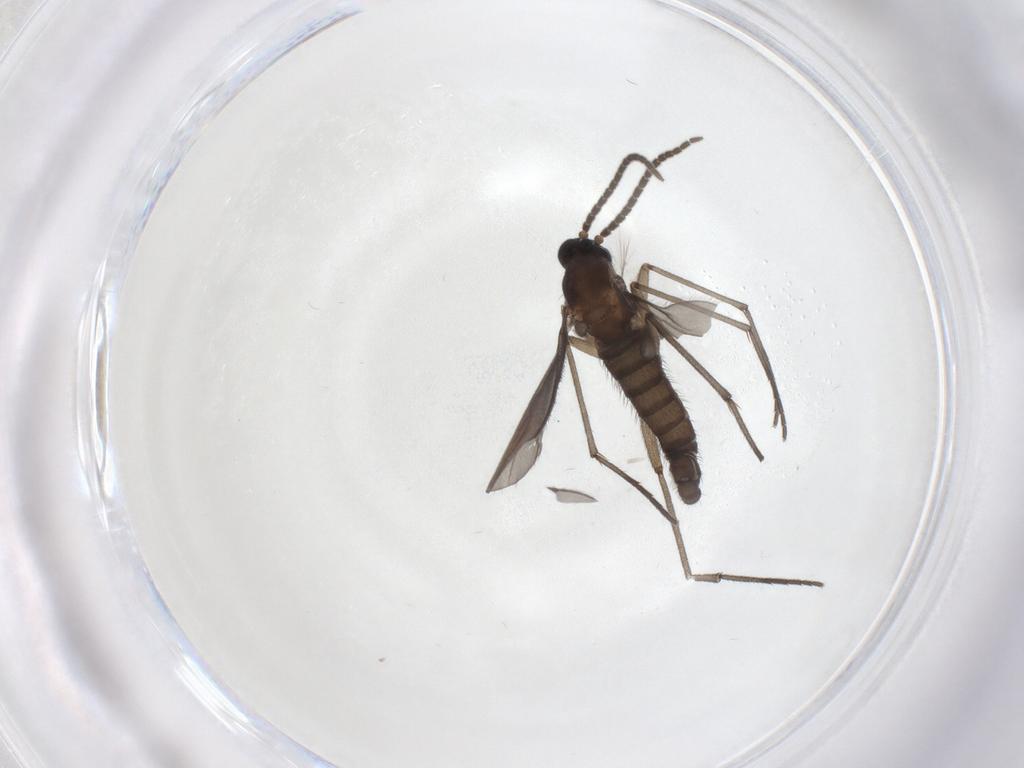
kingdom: Animalia
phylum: Arthropoda
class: Insecta
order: Diptera
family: Sciaridae
